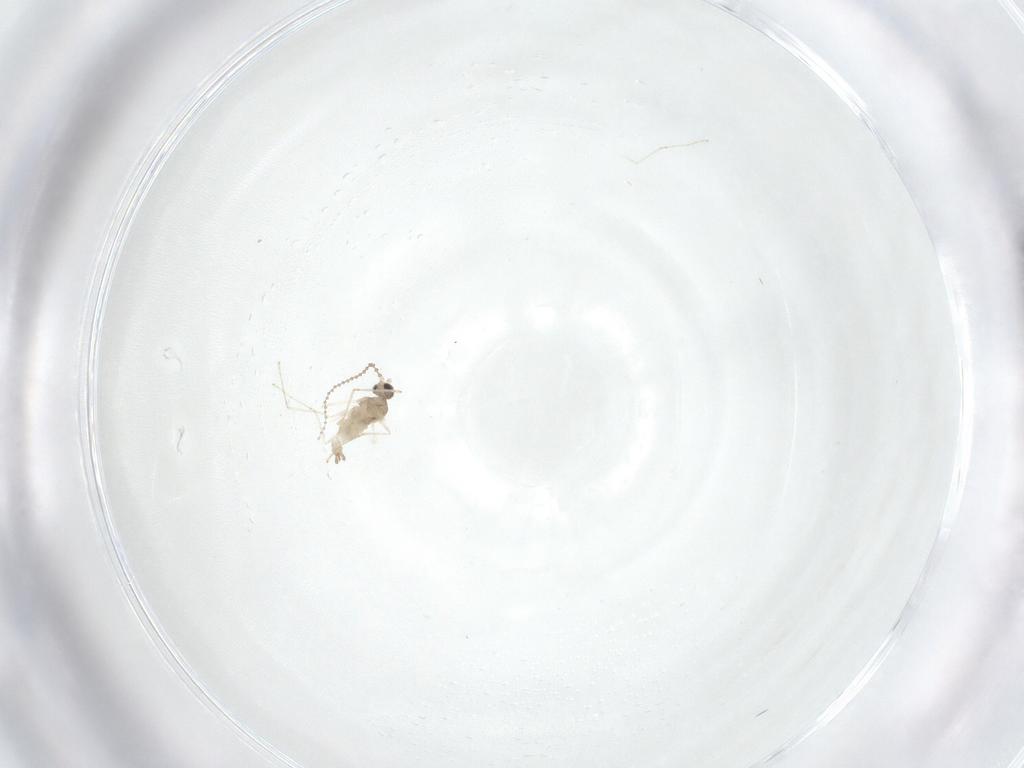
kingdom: Animalia
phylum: Arthropoda
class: Insecta
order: Diptera
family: Cecidomyiidae
